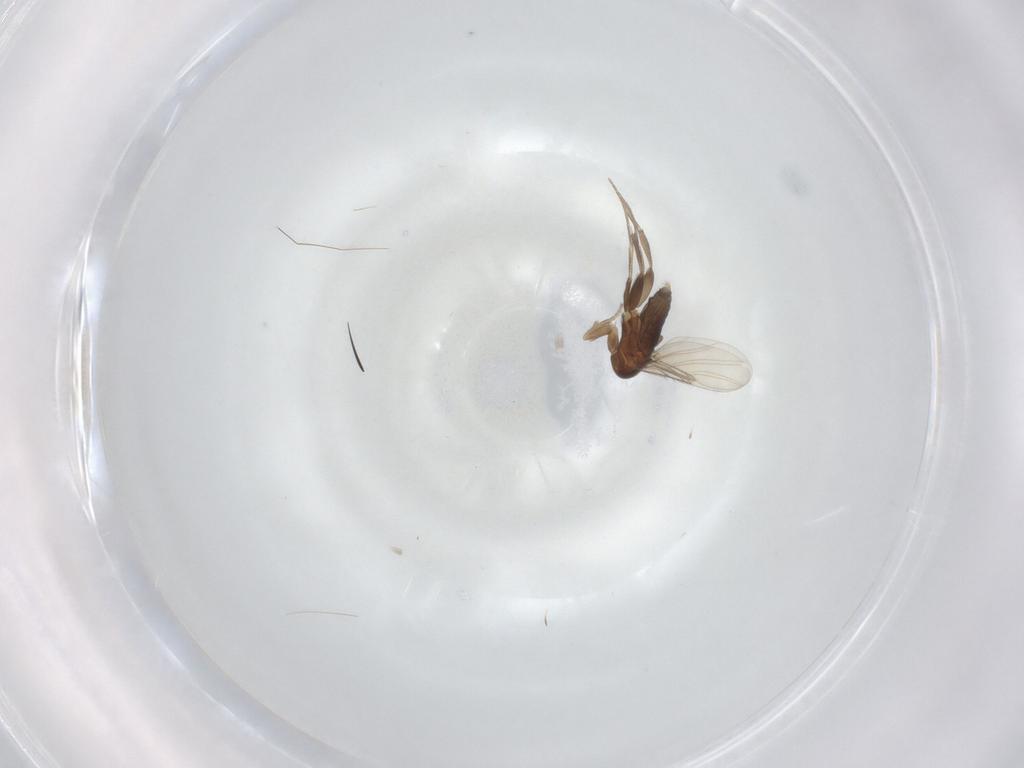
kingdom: Animalia
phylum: Arthropoda
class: Insecta
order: Diptera
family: Phoridae
